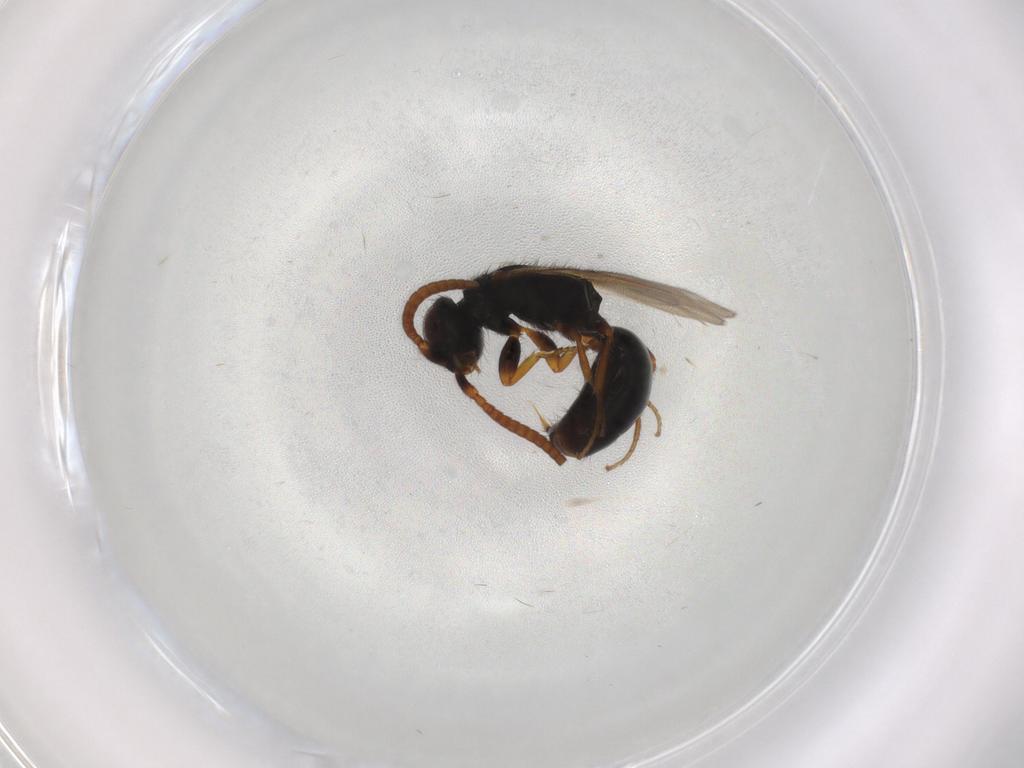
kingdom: Animalia
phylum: Arthropoda
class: Insecta
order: Hymenoptera
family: Bethylidae
